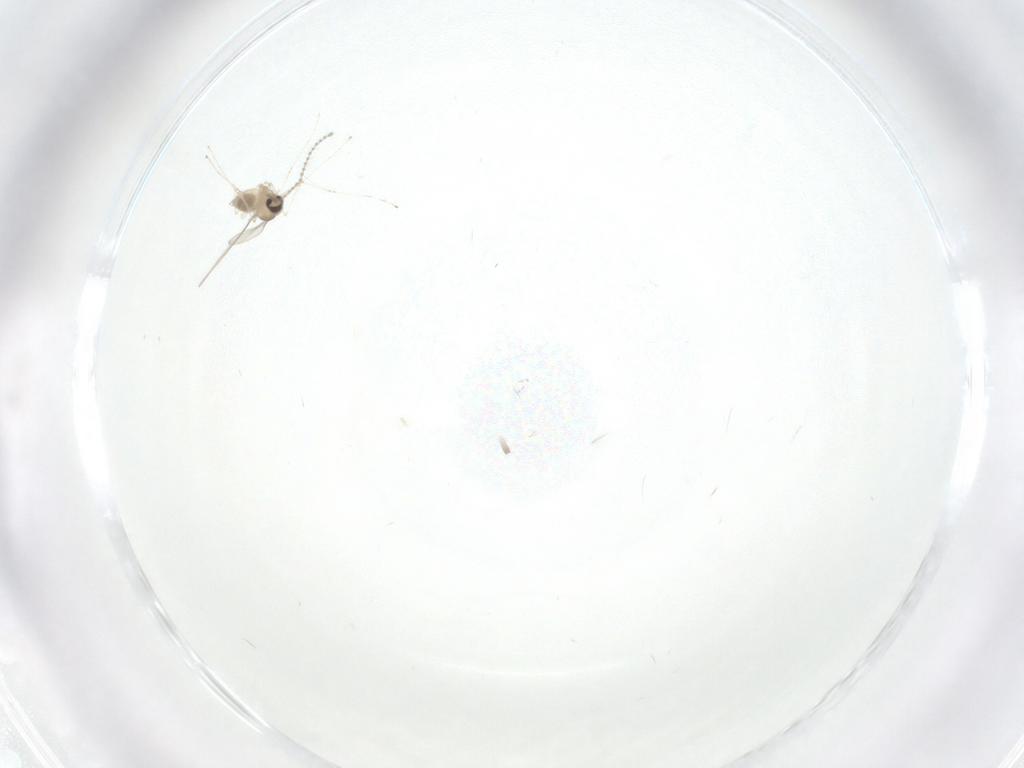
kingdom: Animalia
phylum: Arthropoda
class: Insecta
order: Diptera
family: Cecidomyiidae
